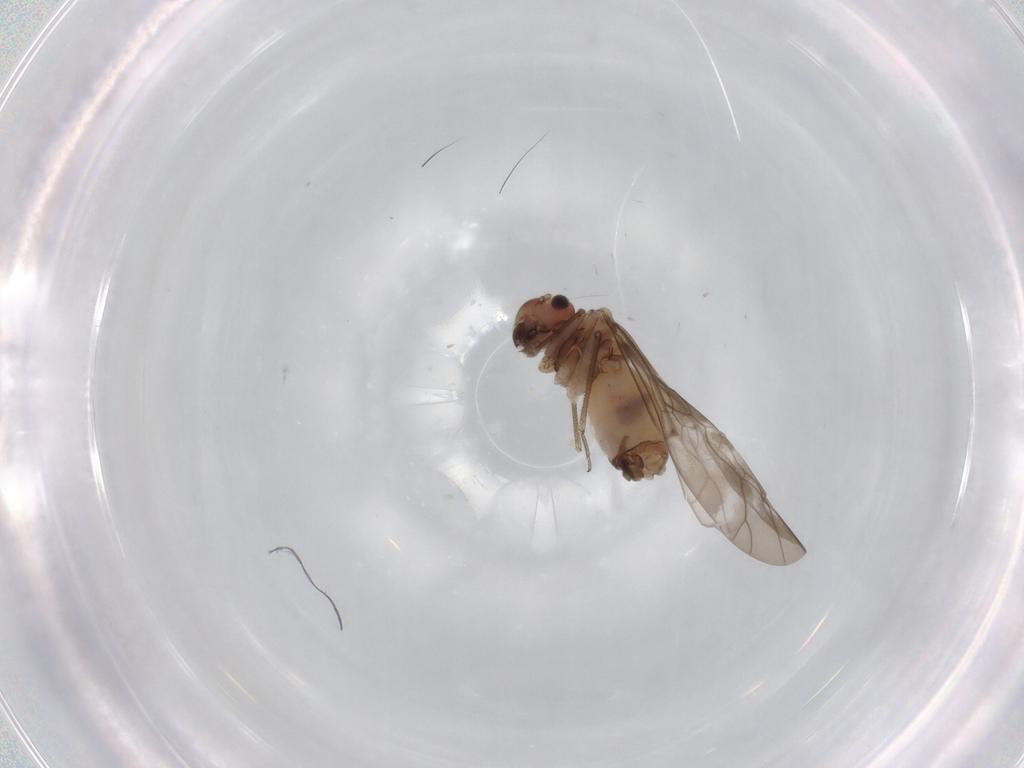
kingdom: Animalia
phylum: Arthropoda
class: Insecta
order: Psocodea
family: Peripsocidae
